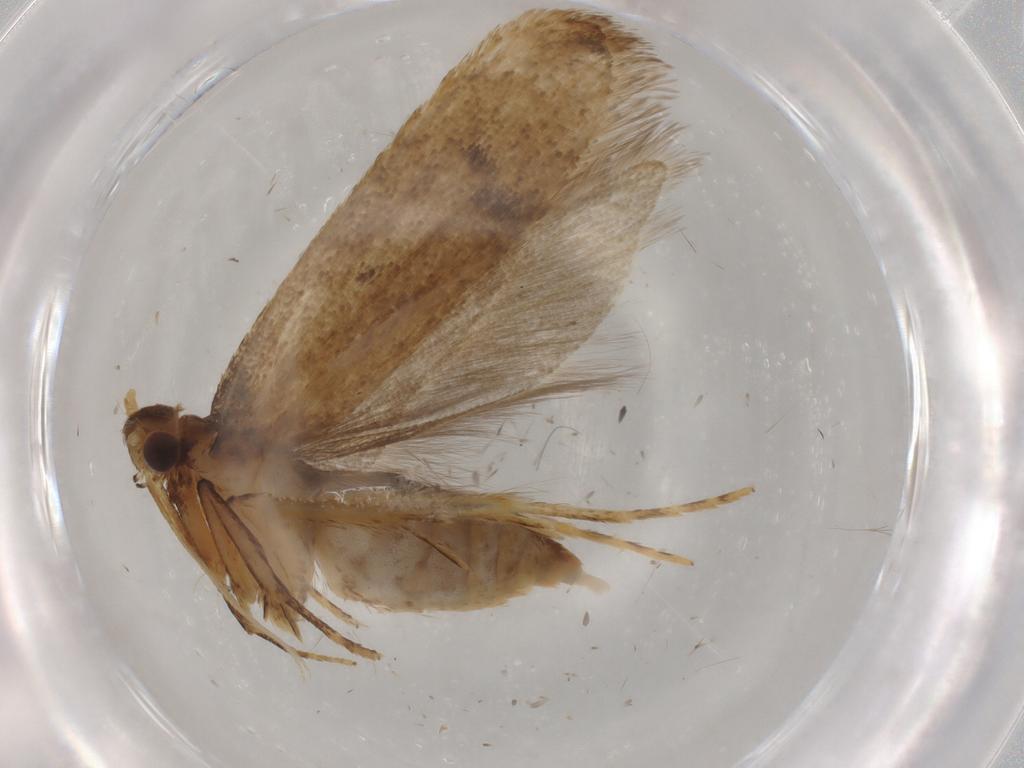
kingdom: Animalia
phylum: Arthropoda
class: Insecta
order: Lepidoptera
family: Lecithoceridae
